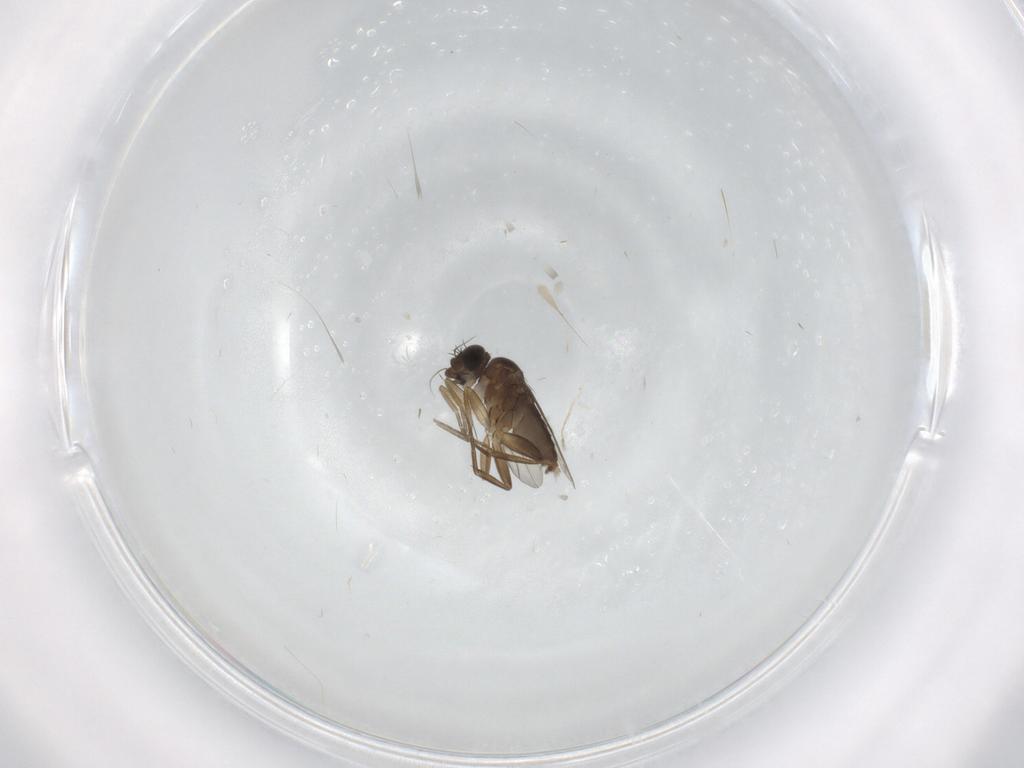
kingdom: Animalia
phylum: Arthropoda
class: Insecta
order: Diptera
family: Phoridae
